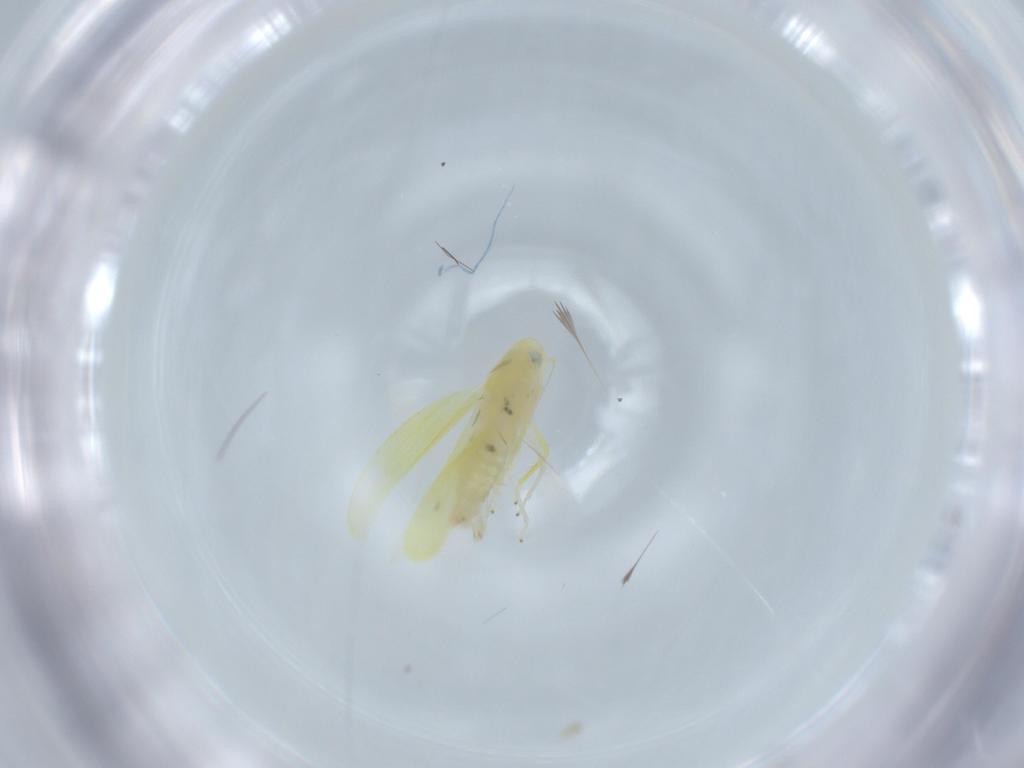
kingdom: Animalia
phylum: Arthropoda
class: Insecta
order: Hemiptera
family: Cicadellidae
